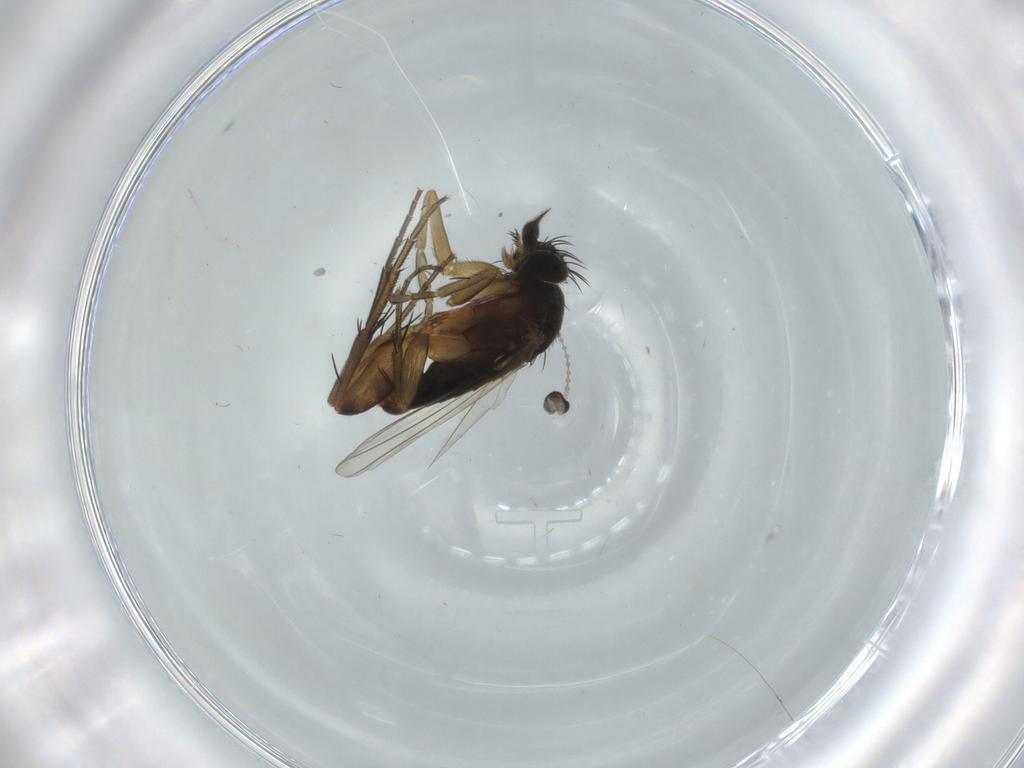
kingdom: Animalia
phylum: Arthropoda
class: Insecta
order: Diptera
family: Phoridae
